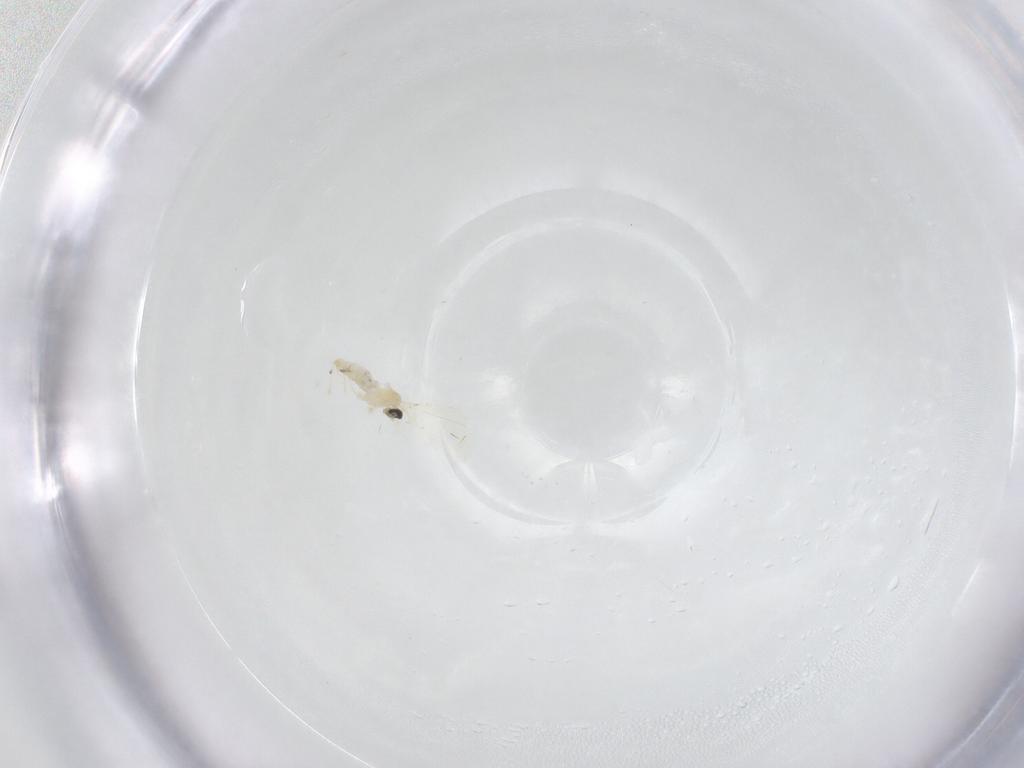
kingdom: Animalia
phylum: Arthropoda
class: Insecta
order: Diptera
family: Cecidomyiidae
